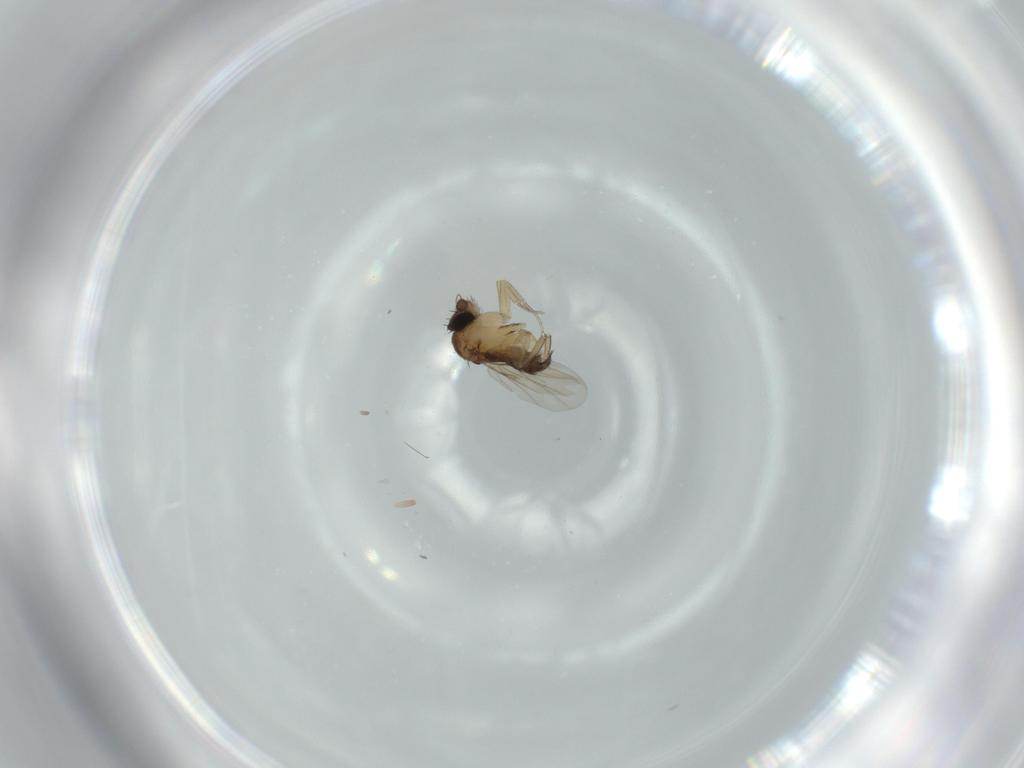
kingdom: Animalia
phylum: Arthropoda
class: Insecta
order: Diptera
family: Phoridae
